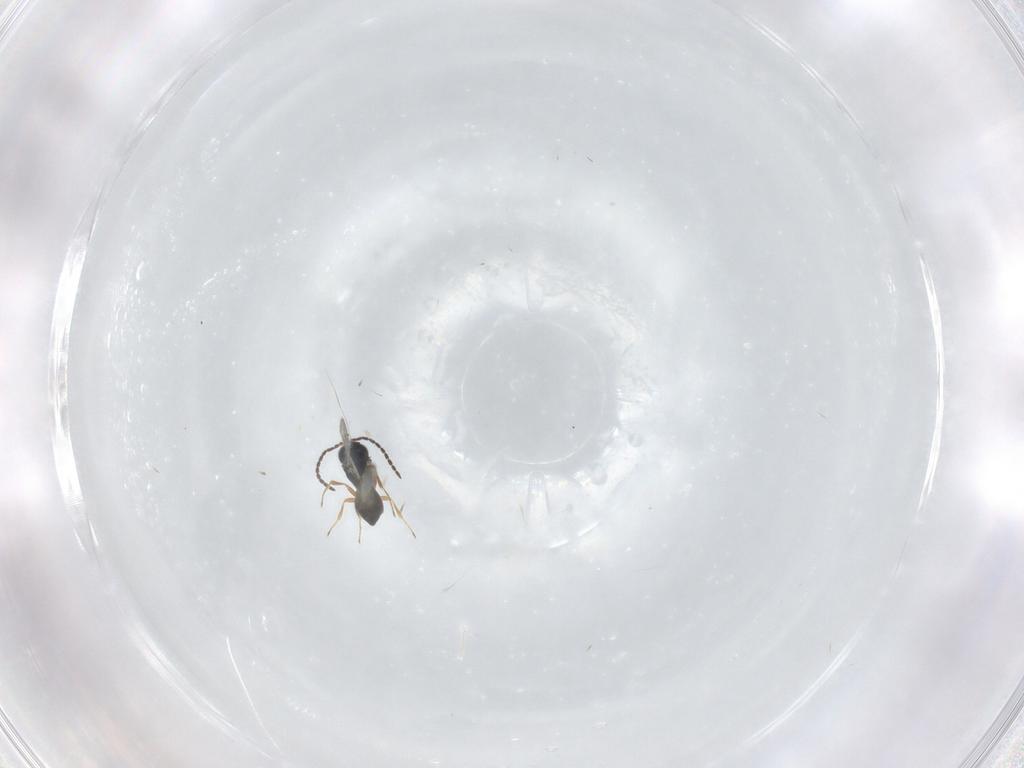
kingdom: Animalia
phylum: Arthropoda
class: Insecta
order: Hymenoptera
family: Scelionidae
